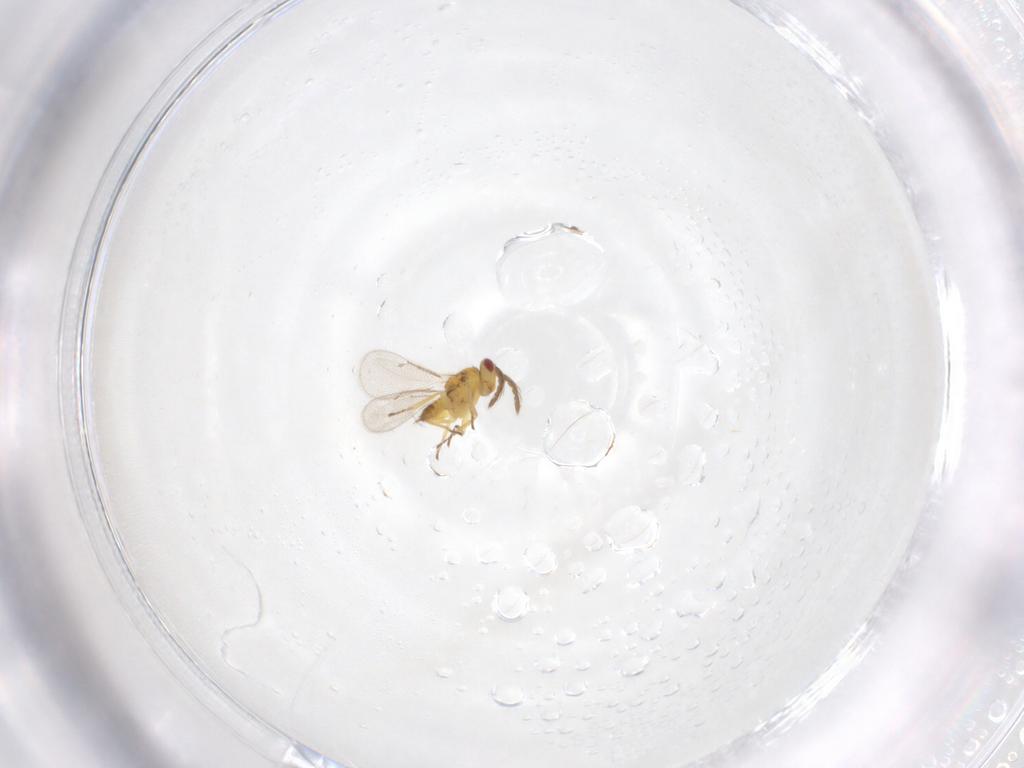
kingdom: Animalia
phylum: Arthropoda
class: Insecta
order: Hymenoptera
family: Eulophidae
